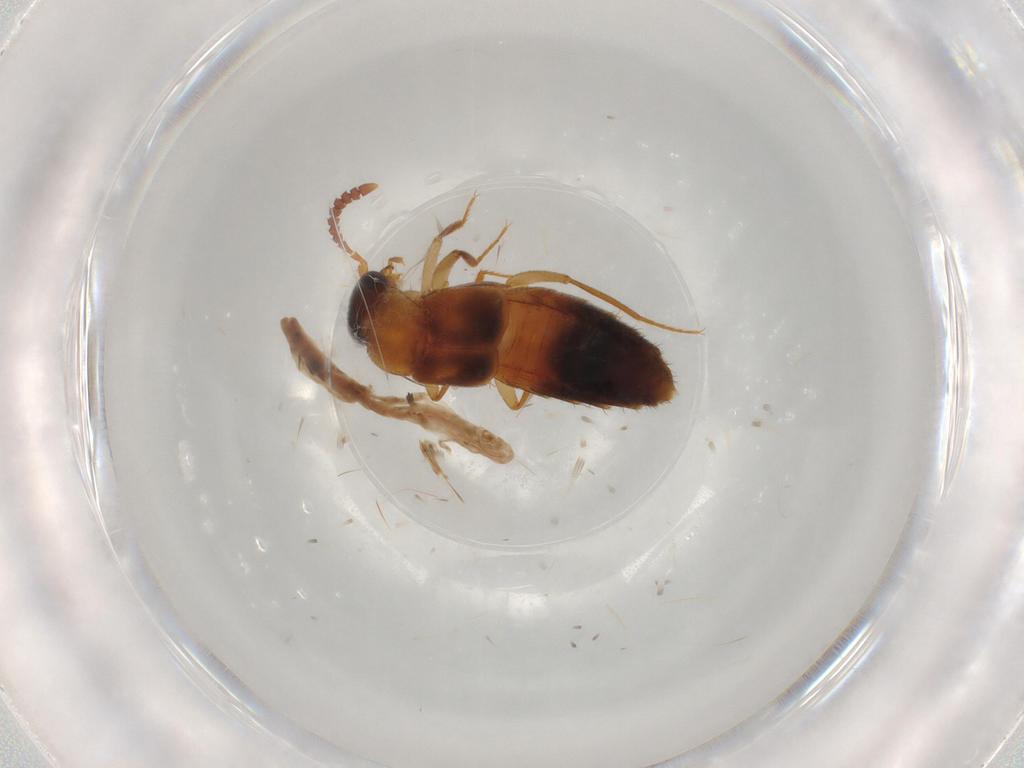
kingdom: Animalia
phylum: Arthropoda
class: Insecta
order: Coleoptera
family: Staphylinidae
